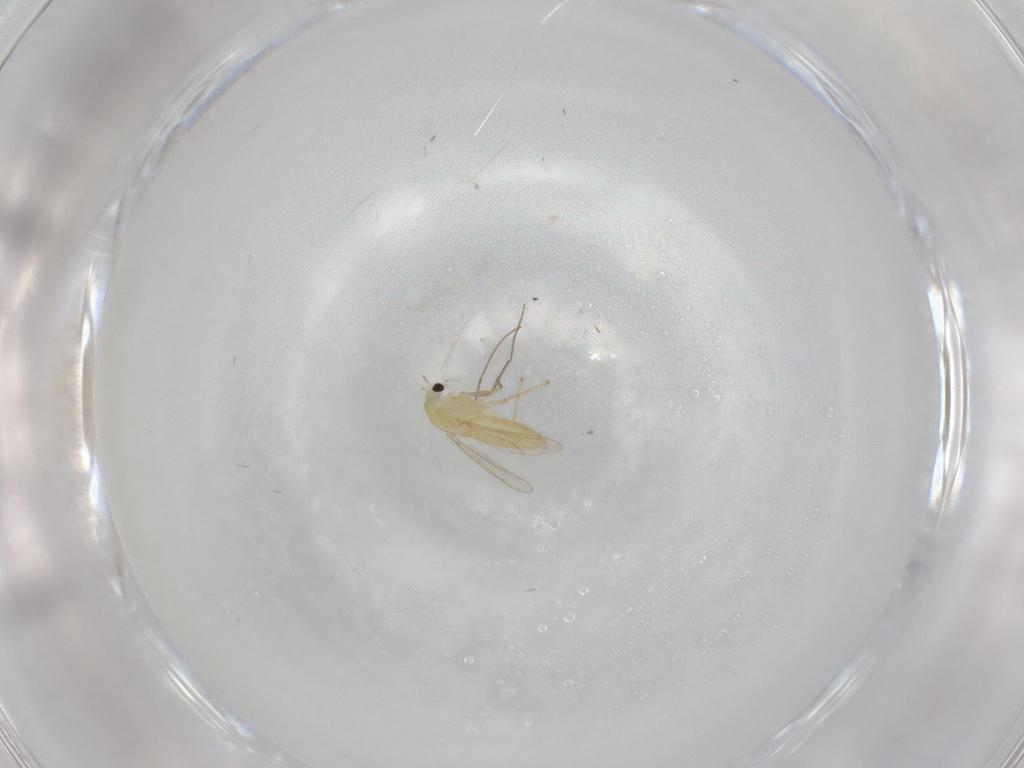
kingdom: Animalia
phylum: Arthropoda
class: Insecta
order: Diptera
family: Chironomidae
